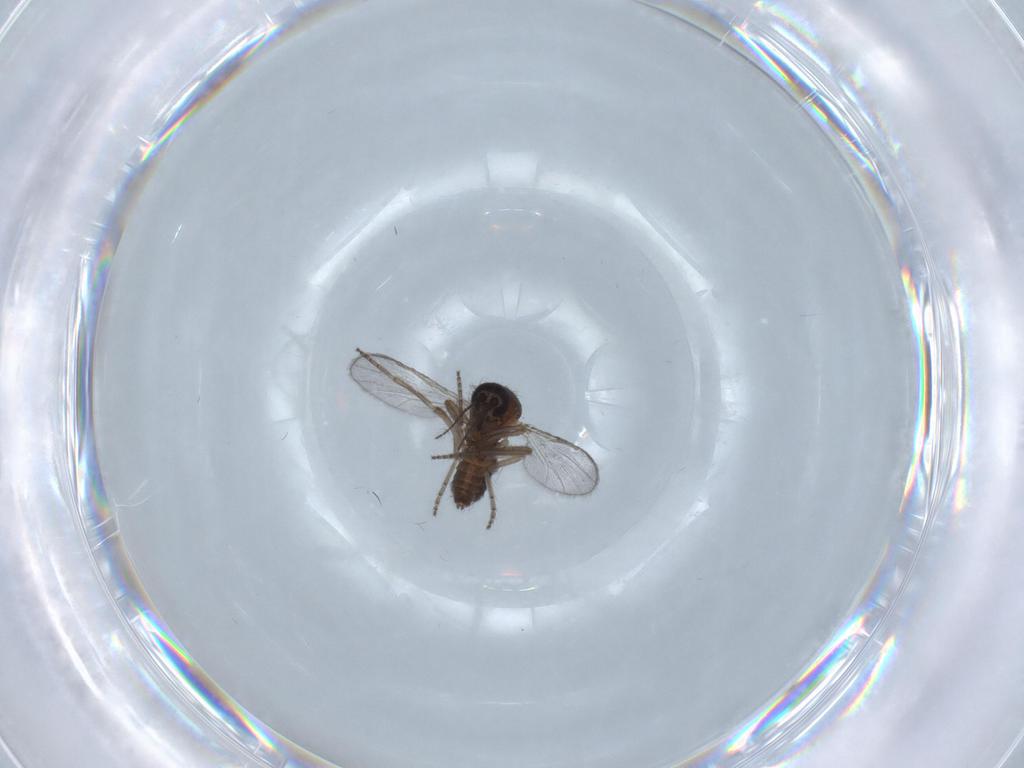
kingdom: Animalia
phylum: Arthropoda
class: Insecta
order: Diptera
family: Ceratopogonidae
